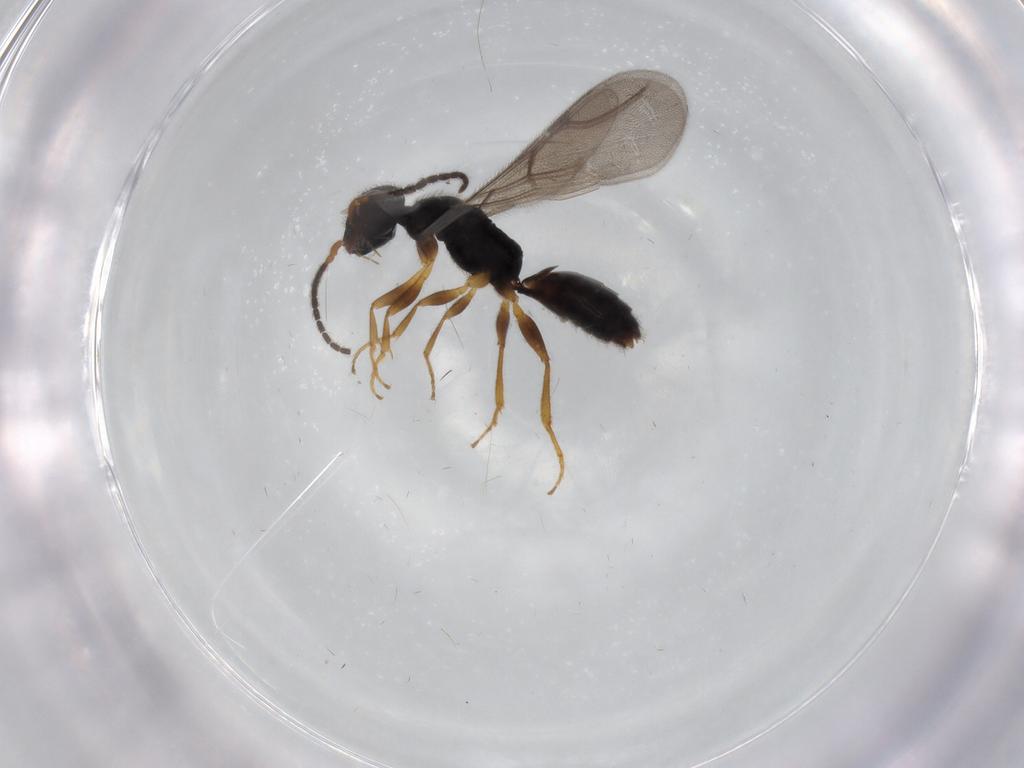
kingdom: Animalia
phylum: Arthropoda
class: Insecta
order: Hymenoptera
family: Bethylidae
